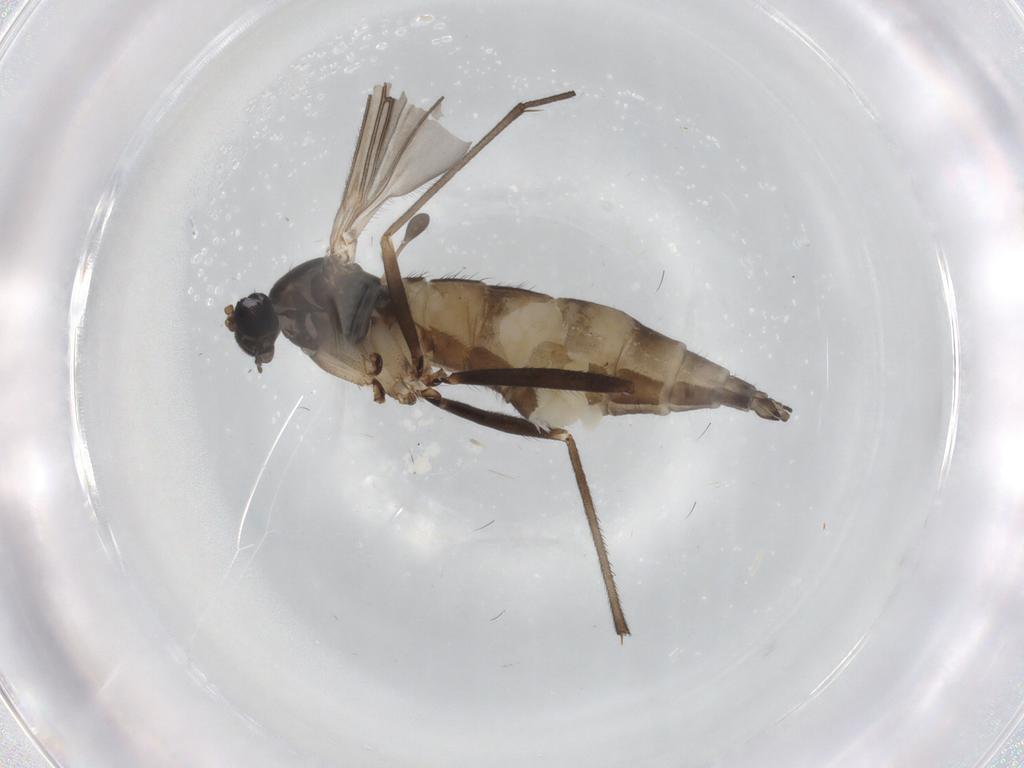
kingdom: Animalia
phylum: Arthropoda
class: Insecta
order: Diptera
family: Sciaridae
